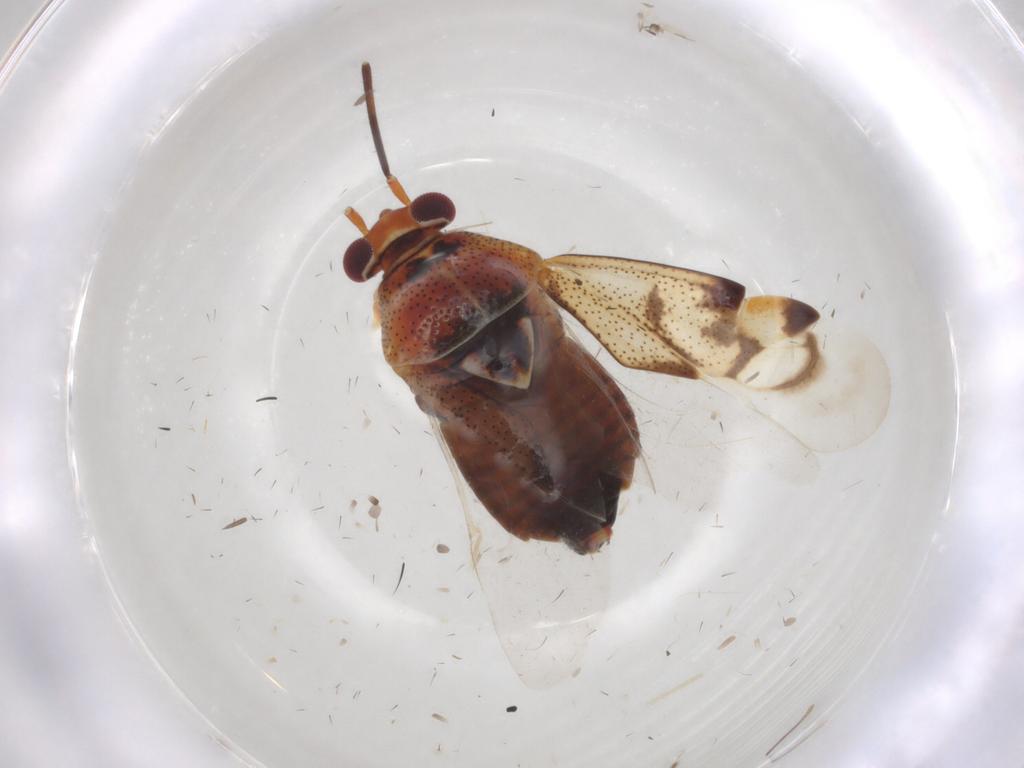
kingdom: Animalia
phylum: Arthropoda
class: Insecta
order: Hemiptera
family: Miridae
